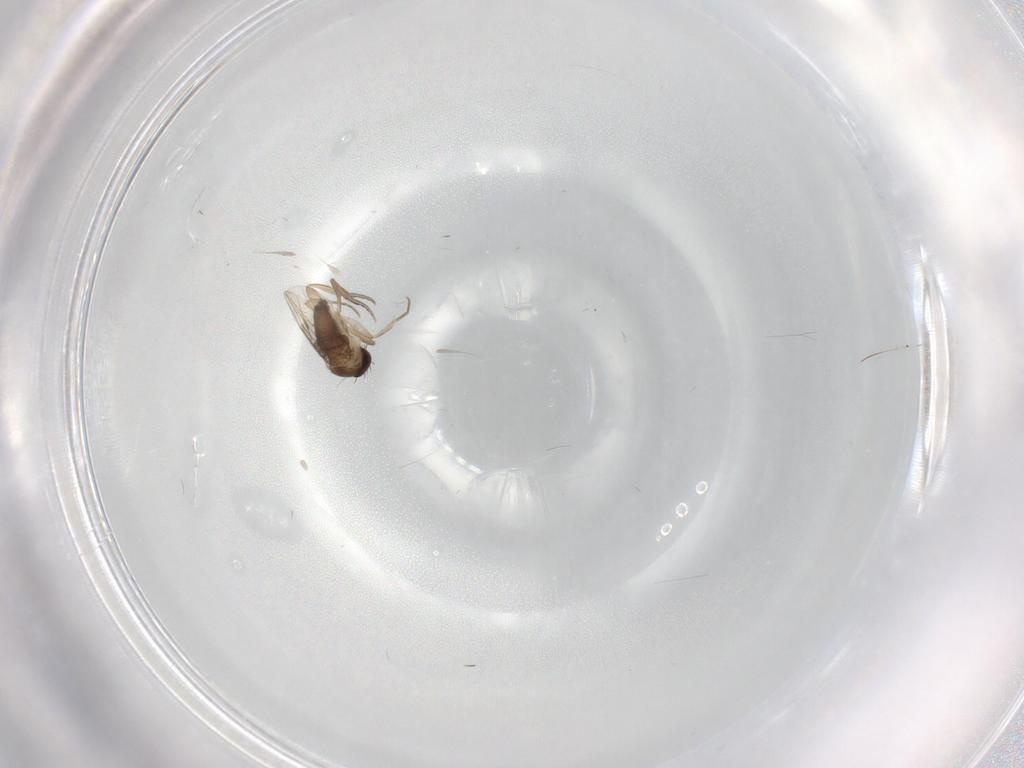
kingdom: Animalia
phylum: Arthropoda
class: Insecta
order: Diptera
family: Phoridae
